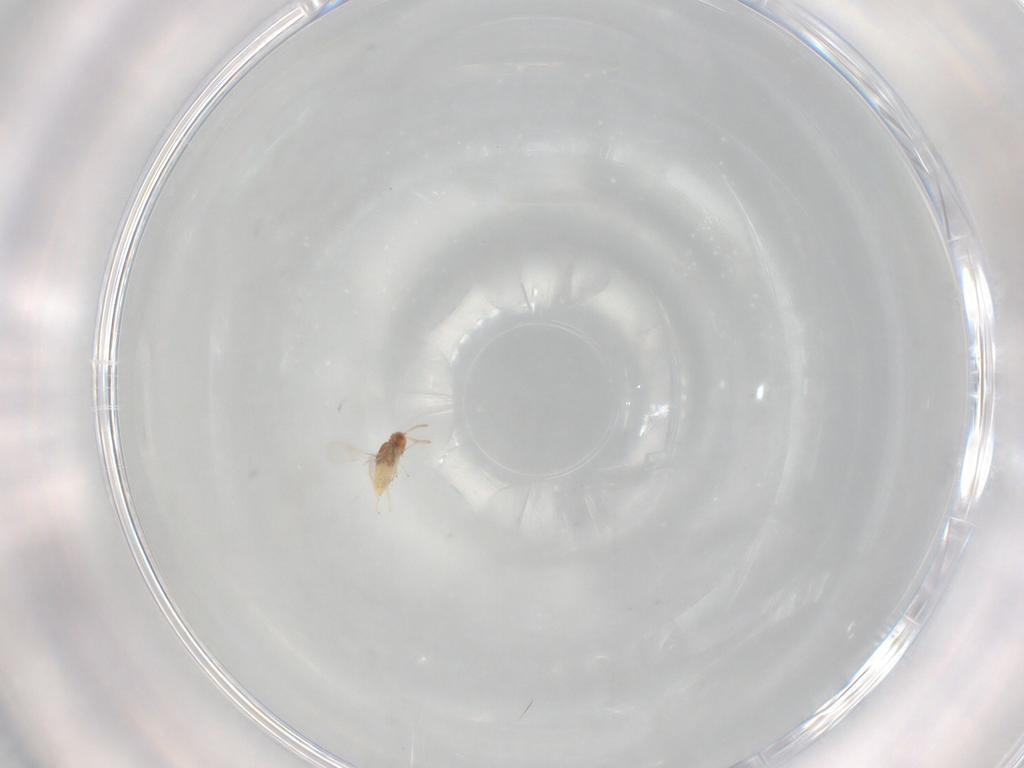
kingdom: Animalia
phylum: Arthropoda
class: Insecta
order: Hymenoptera
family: Aphelinidae
